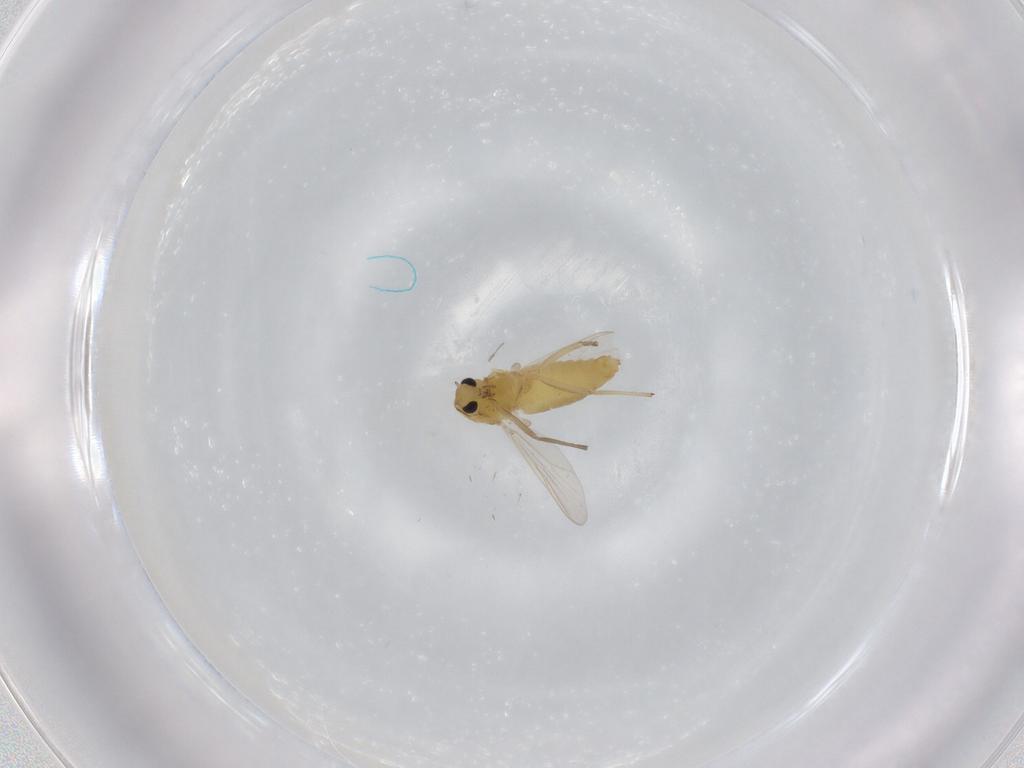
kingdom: Animalia
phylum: Arthropoda
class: Insecta
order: Diptera
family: Chironomidae
